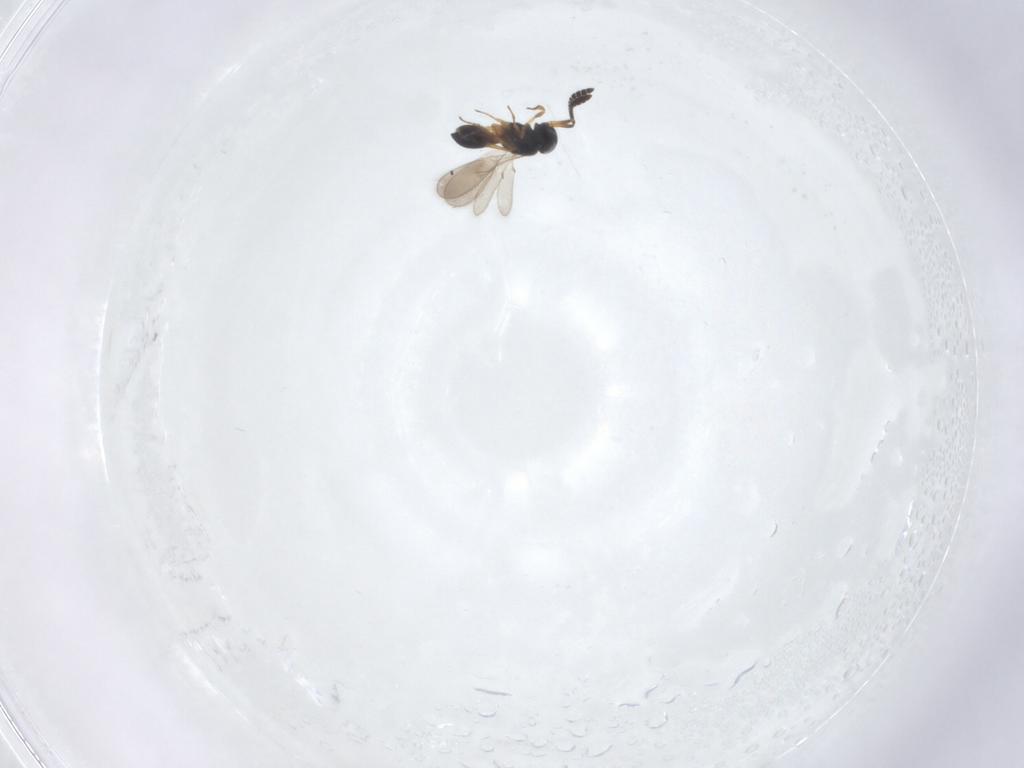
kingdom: Animalia
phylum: Arthropoda
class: Insecta
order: Hymenoptera
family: Scelionidae
